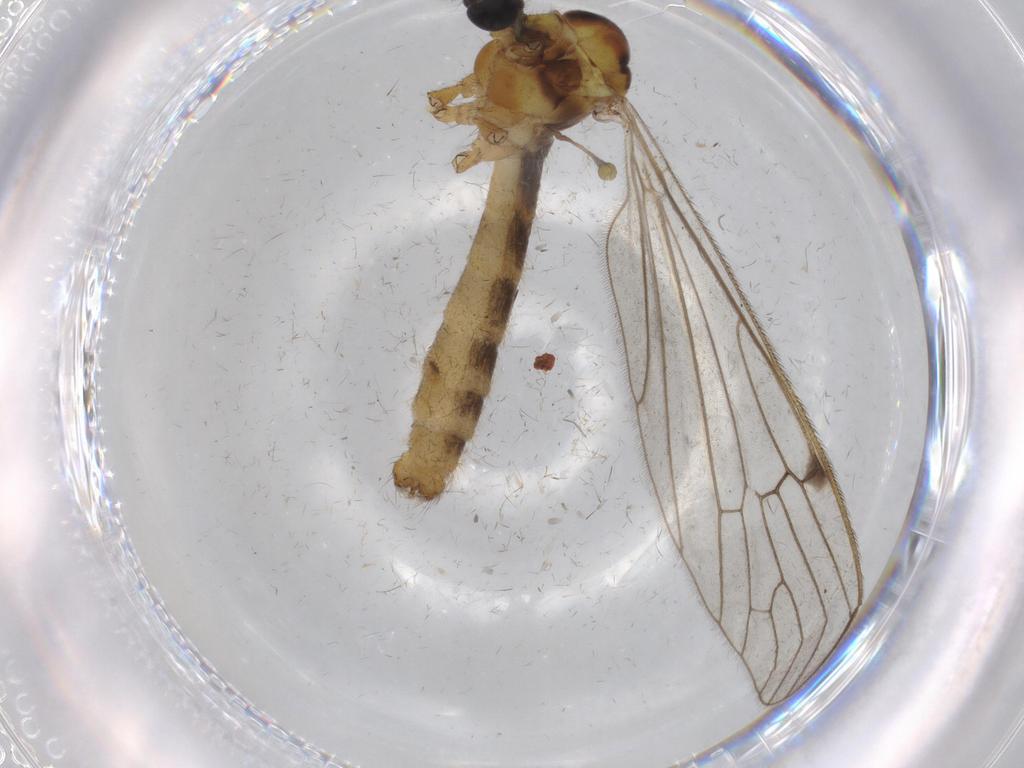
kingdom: Animalia
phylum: Arthropoda
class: Insecta
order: Diptera
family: Chironomidae
